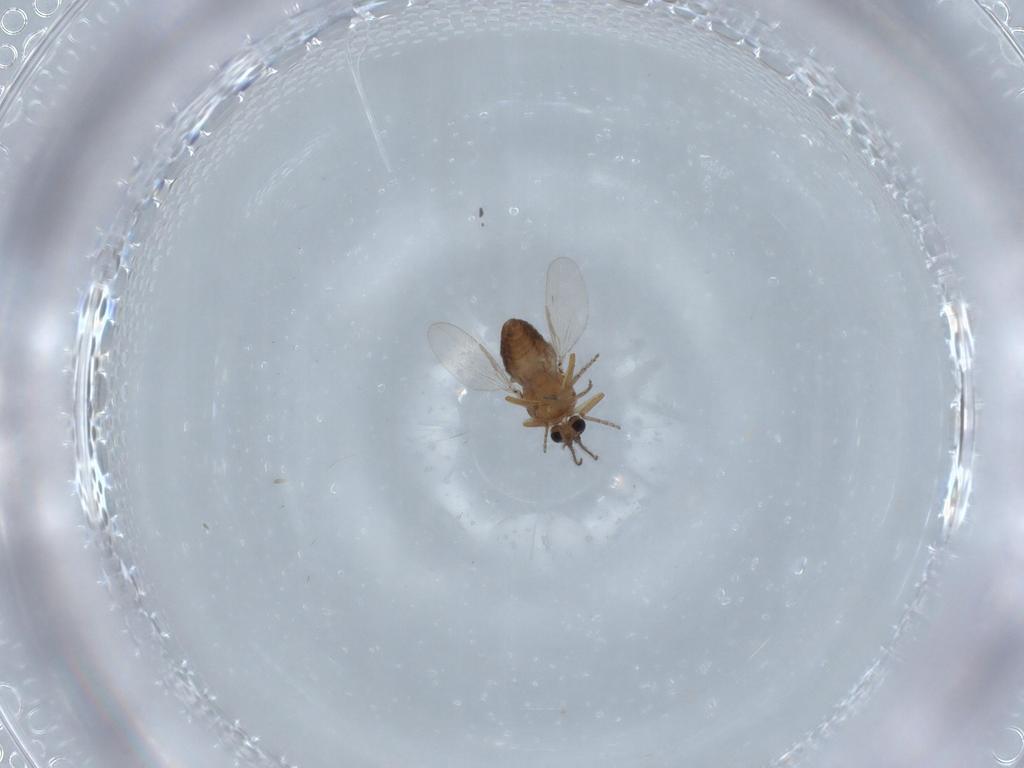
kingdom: Animalia
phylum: Arthropoda
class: Insecta
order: Diptera
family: Ceratopogonidae
